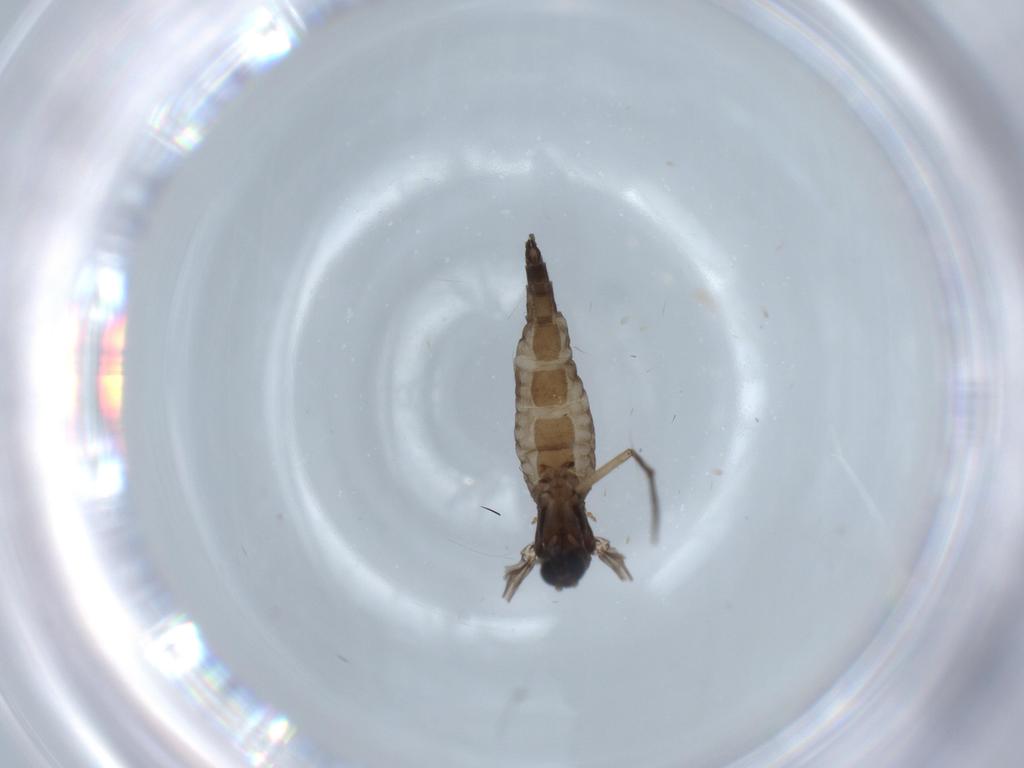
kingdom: Animalia
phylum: Arthropoda
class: Insecta
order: Diptera
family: Sciaridae
